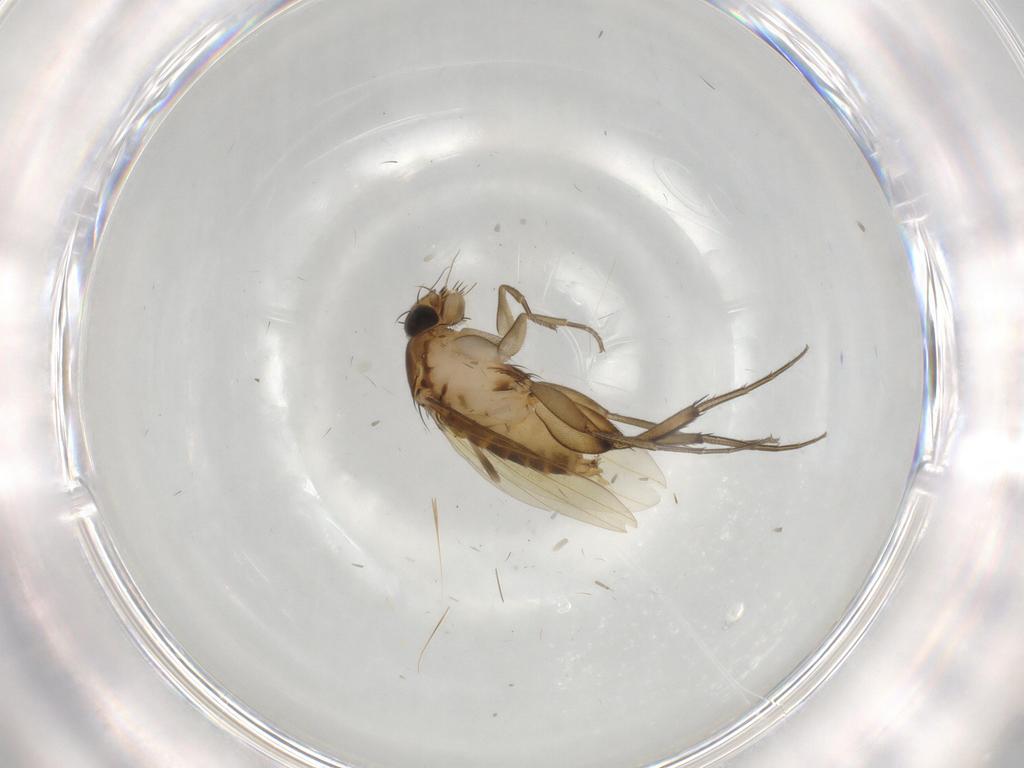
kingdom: Animalia
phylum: Arthropoda
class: Insecta
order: Diptera
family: Phoridae
